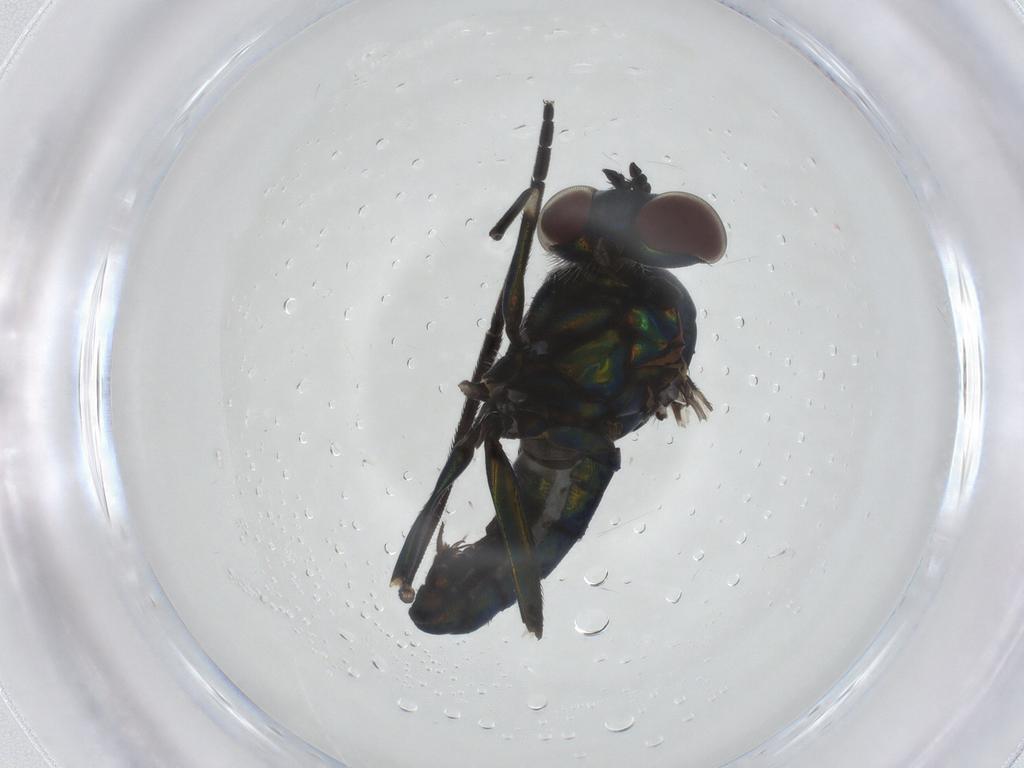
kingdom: Animalia
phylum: Arthropoda
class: Insecta
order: Diptera
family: Dolichopodidae
